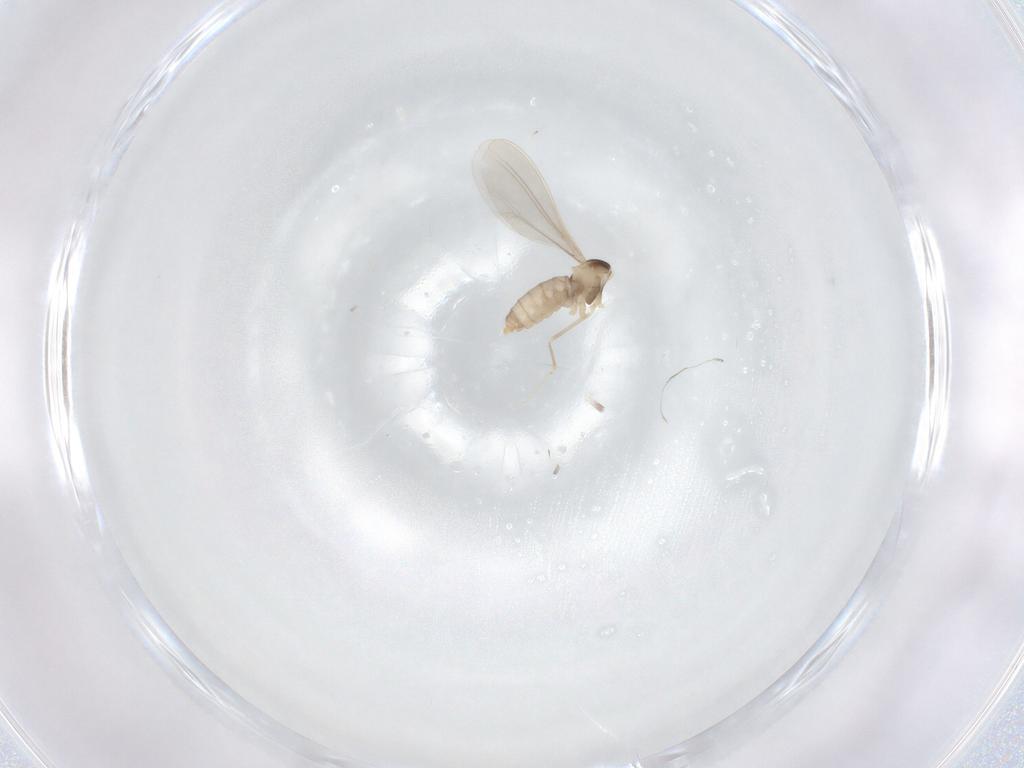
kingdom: Animalia
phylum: Arthropoda
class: Insecta
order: Diptera
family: Cecidomyiidae
